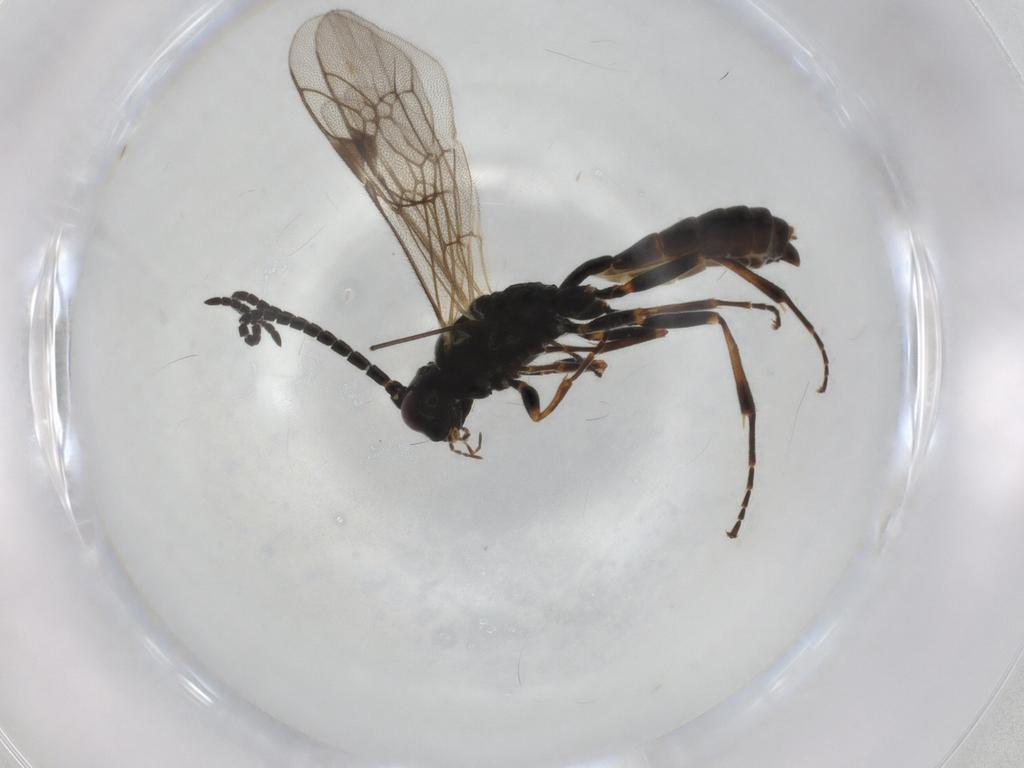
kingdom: Animalia
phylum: Arthropoda
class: Insecta
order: Hymenoptera
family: Ichneumonidae
